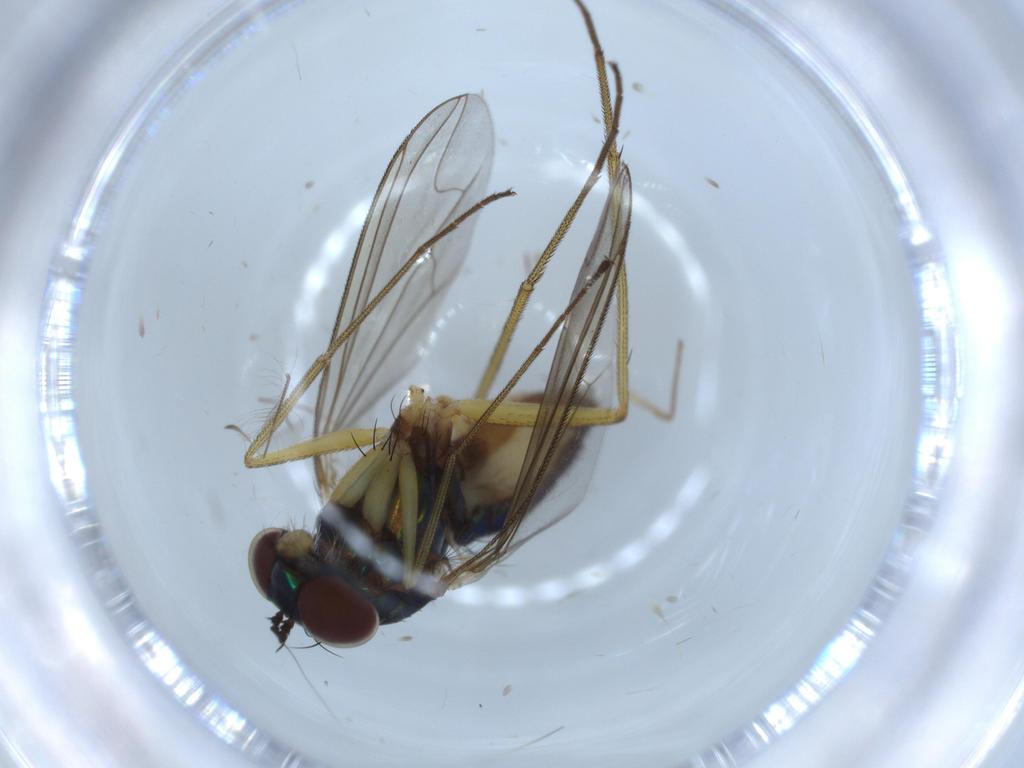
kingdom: Animalia
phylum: Arthropoda
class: Insecta
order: Diptera
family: Dolichopodidae
